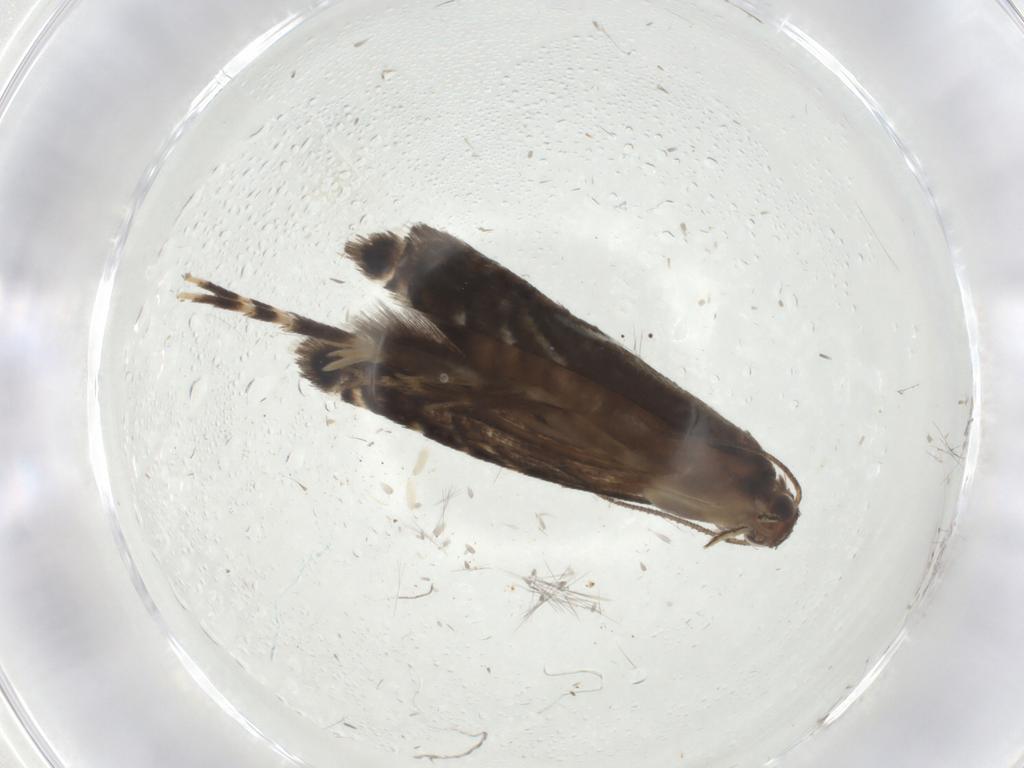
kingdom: Animalia
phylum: Arthropoda
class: Insecta
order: Lepidoptera
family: Glyphipterigidae
